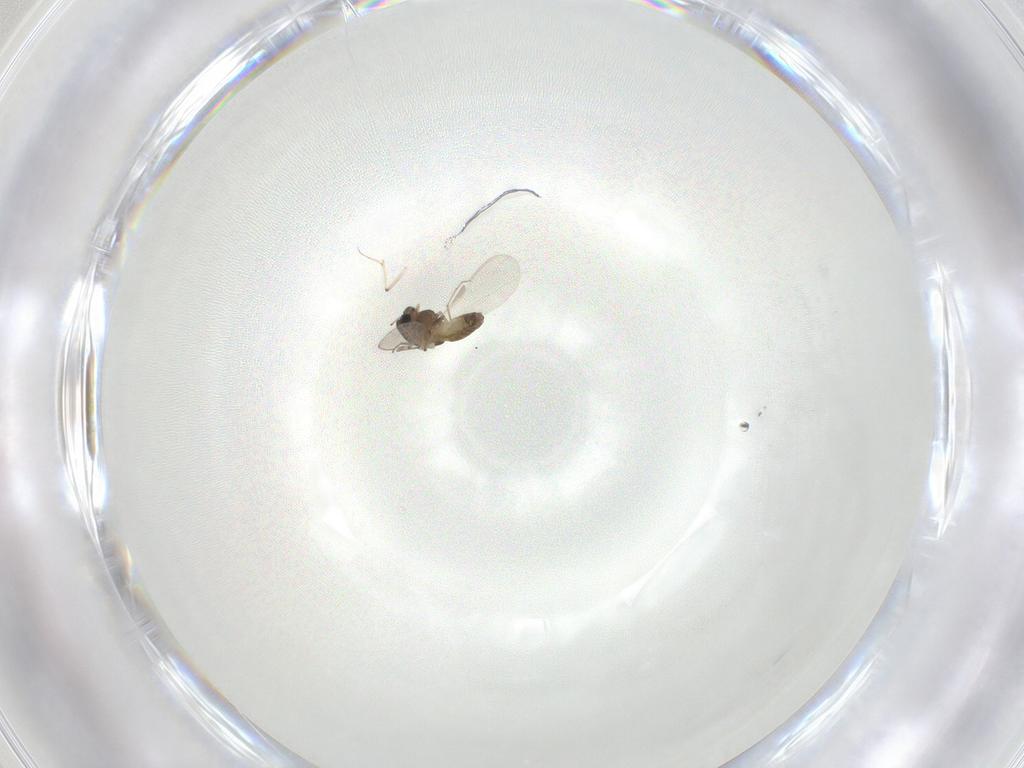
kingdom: Animalia
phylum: Arthropoda
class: Insecta
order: Diptera
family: Chironomidae
